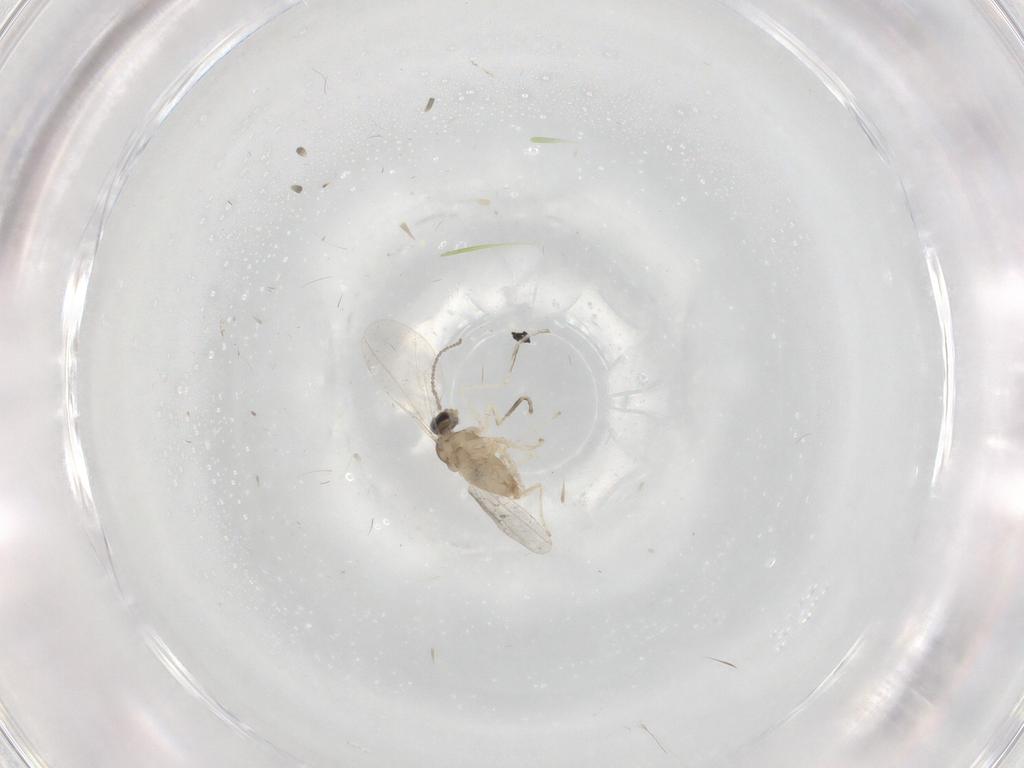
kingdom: Animalia
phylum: Arthropoda
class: Insecta
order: Diptera
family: Cecidomyiidae
